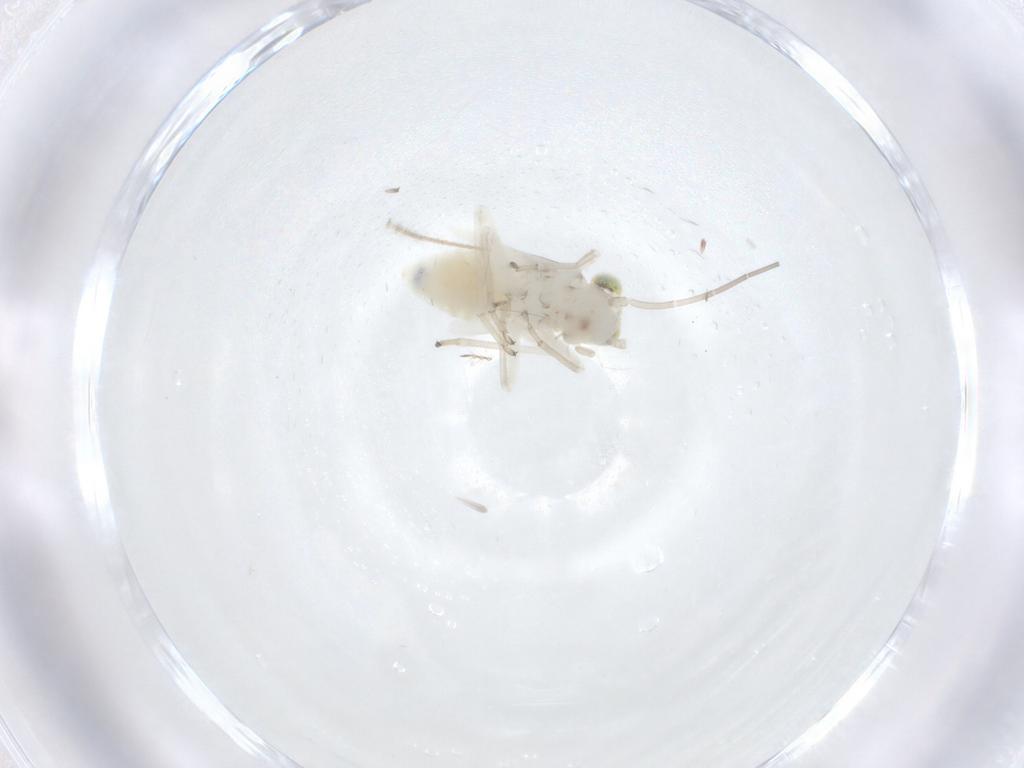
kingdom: Animalia
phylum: Arthropoda
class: Insecta
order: Psocodea
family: Caeciliusidae
